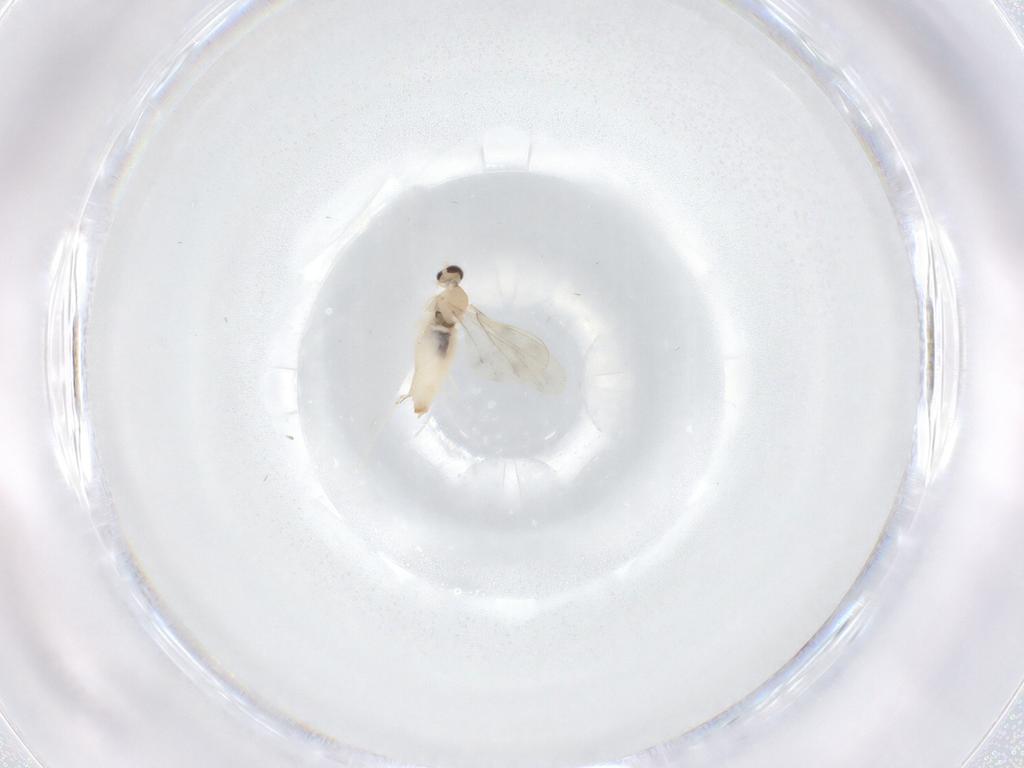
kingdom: Animalia
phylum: Arthropoda
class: Insecta
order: Diptera
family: Cecidomyiidae
